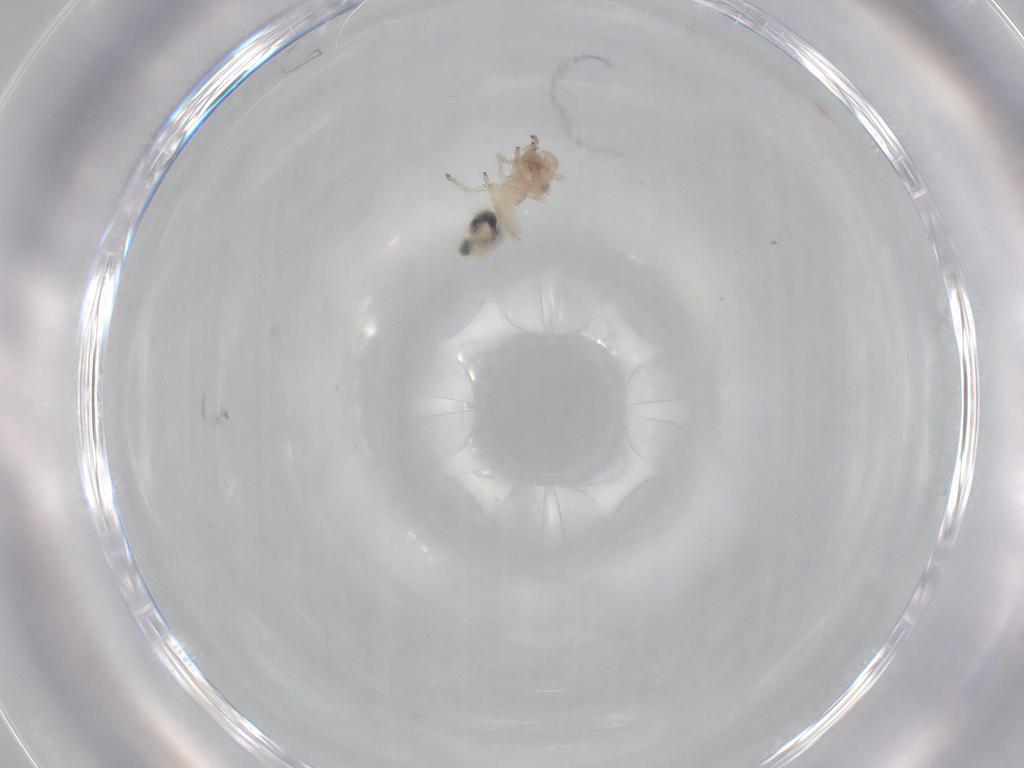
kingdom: Animalia
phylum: Arthropoda
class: Insecta
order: Psocodea
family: Stenopsocidae
